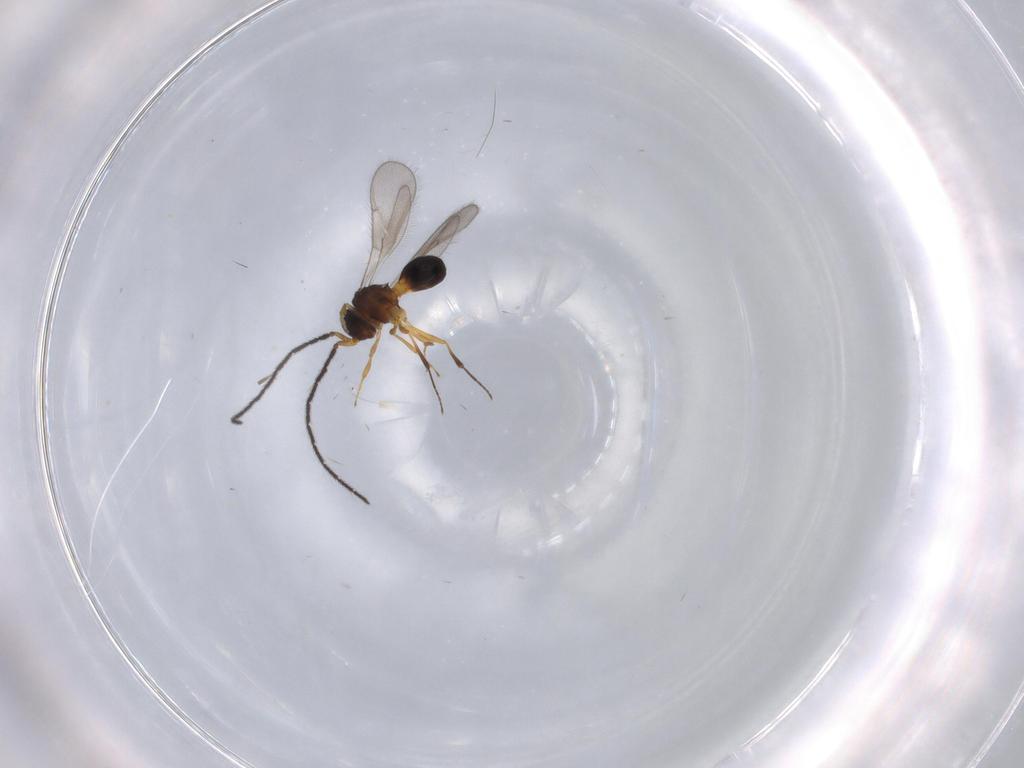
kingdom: Animalia
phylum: Arthropoda
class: Insecta
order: Hymenoptera
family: Scelionidae
